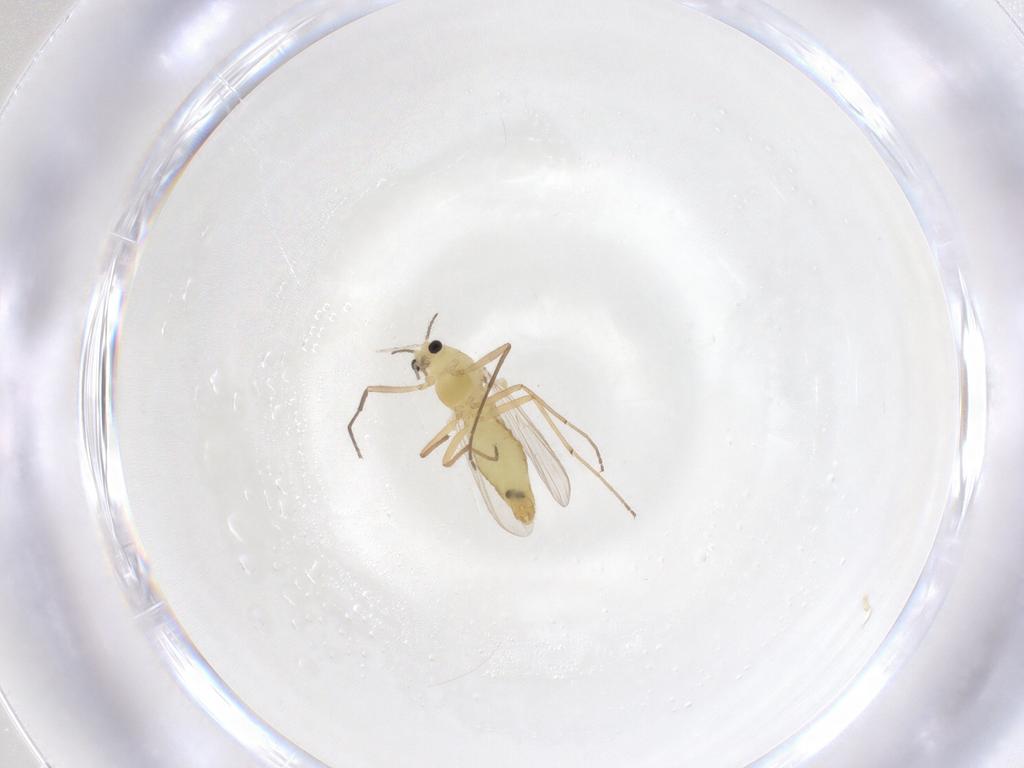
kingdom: Animalia
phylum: Arthropoda
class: Insecta
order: Diptera
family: Chironomidae
